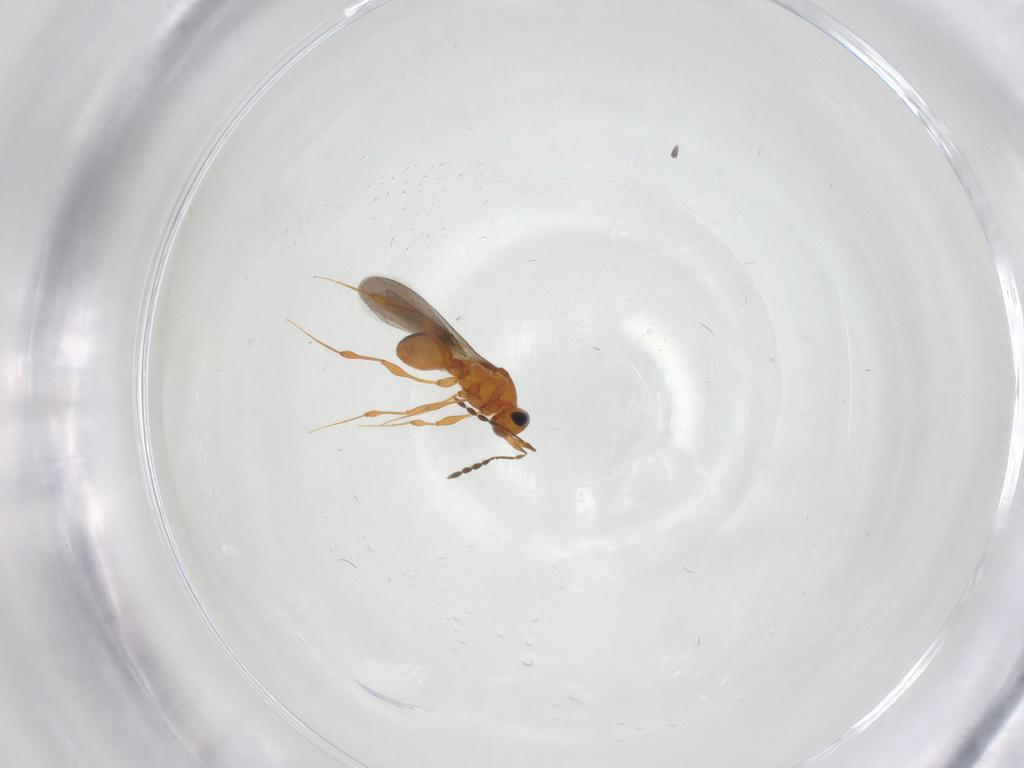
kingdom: Animalia
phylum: Arthropoda
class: Insecta
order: Hymenoptera
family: Platygastridae
